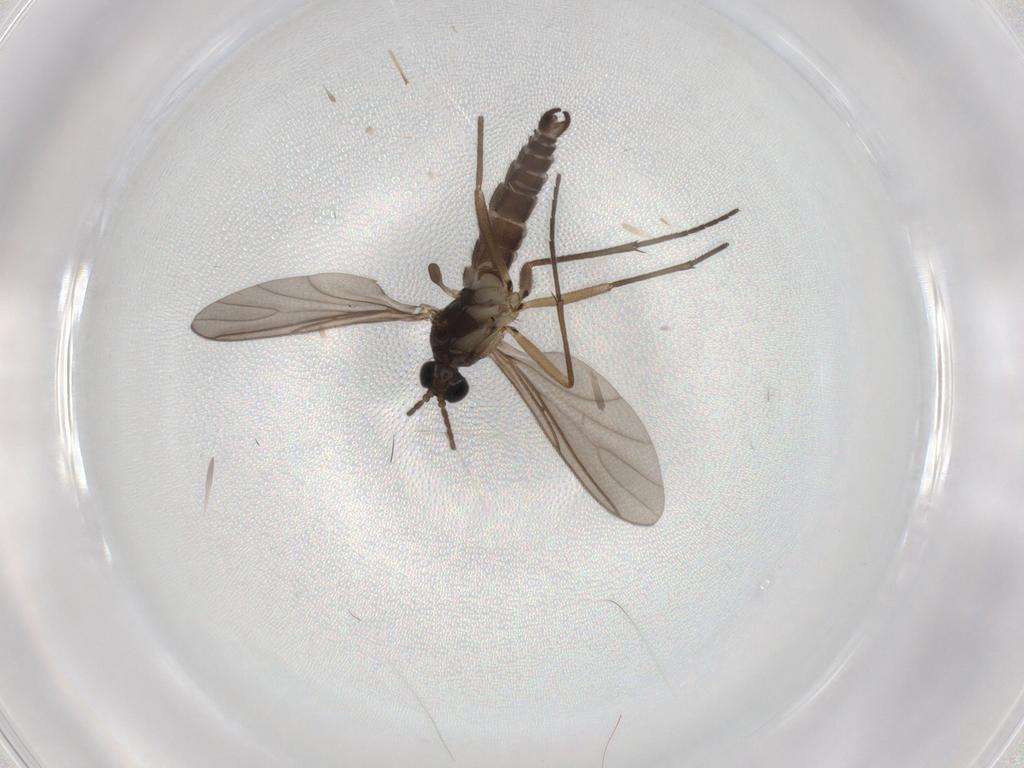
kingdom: Animalia
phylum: Arthropoda
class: Insecta
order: Diptera
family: Sciaridae
